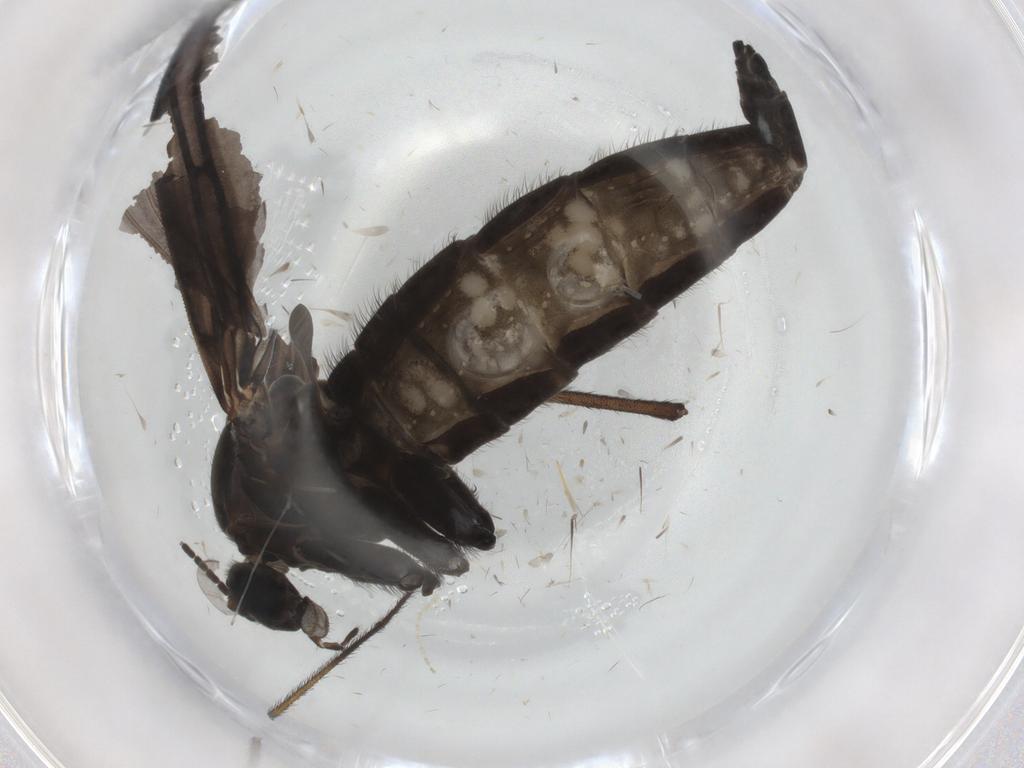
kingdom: Animalia
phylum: Arthropoda
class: Insecta
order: Diptera
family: Limoniidae
